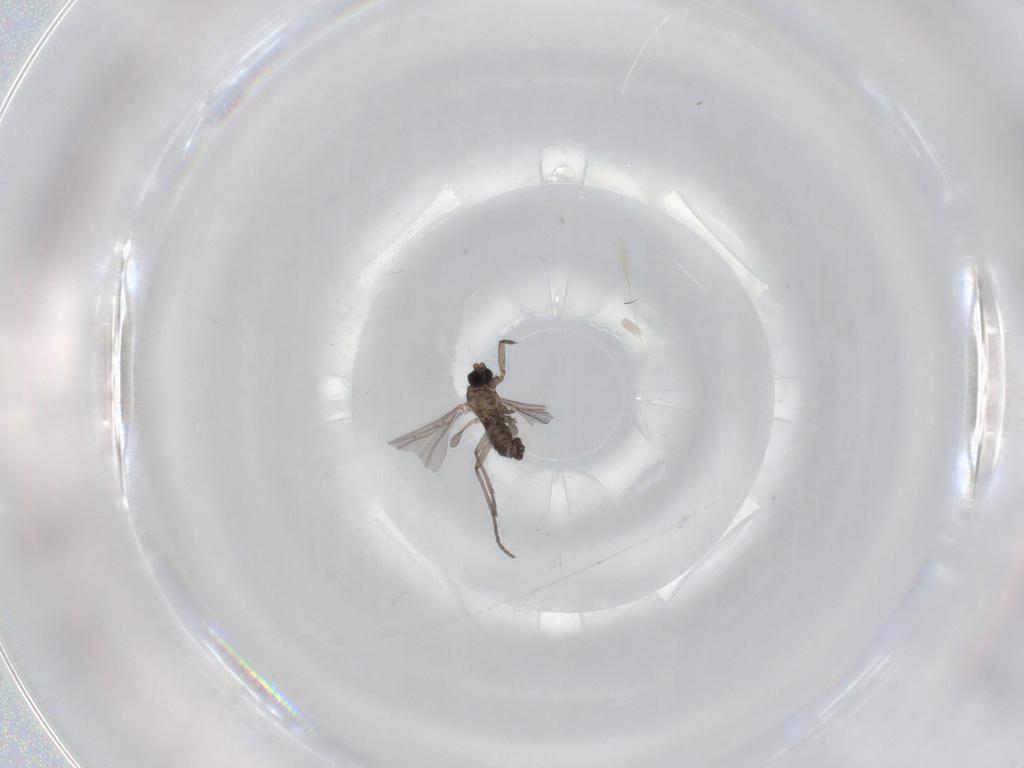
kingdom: Animalia
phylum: Arthropoda
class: Insecta
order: Diptera
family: Sciaridae
